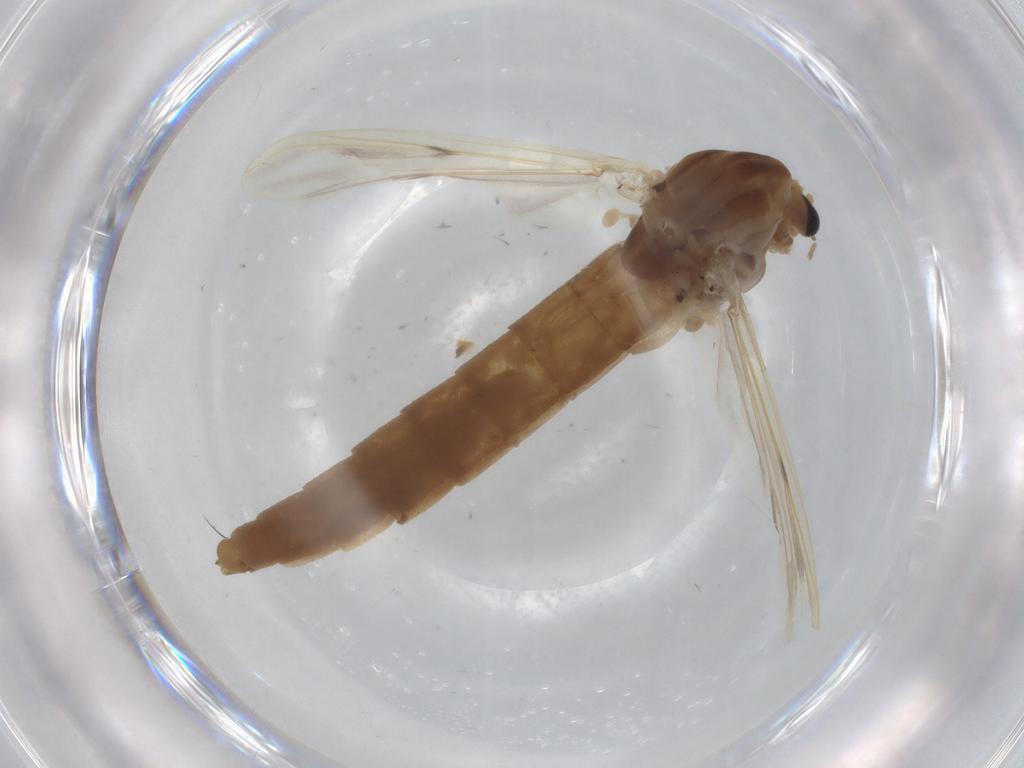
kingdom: Animalia
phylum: Arthropoda
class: Insecta
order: Diptera
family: Chironomidae
